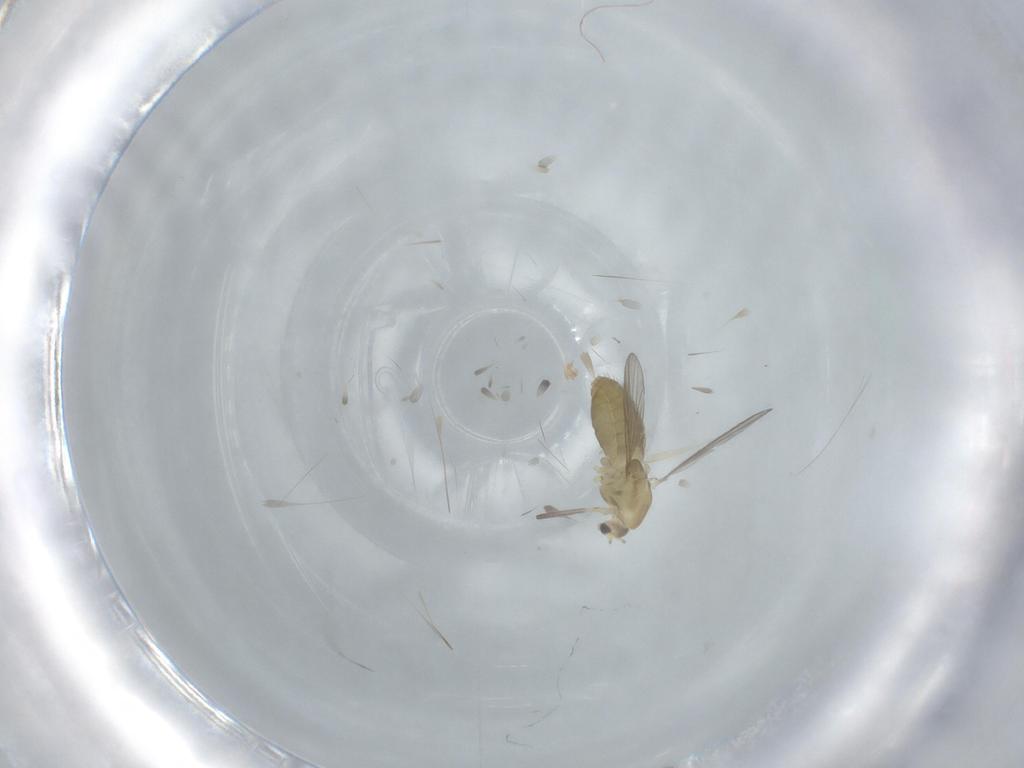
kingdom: Animalia
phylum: Arthropoda
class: Insecta
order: Diptera
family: Chironomidae
